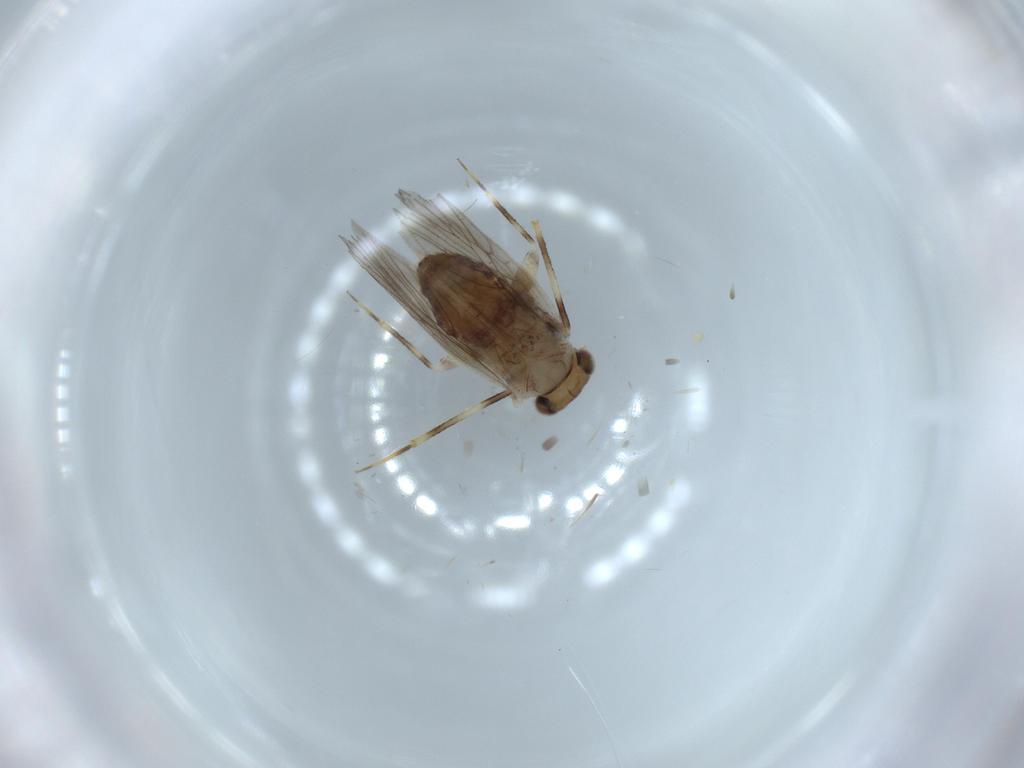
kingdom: Animalia
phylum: Arthropoda
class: Insecta
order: Psocodea
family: Lepidopsocidae
